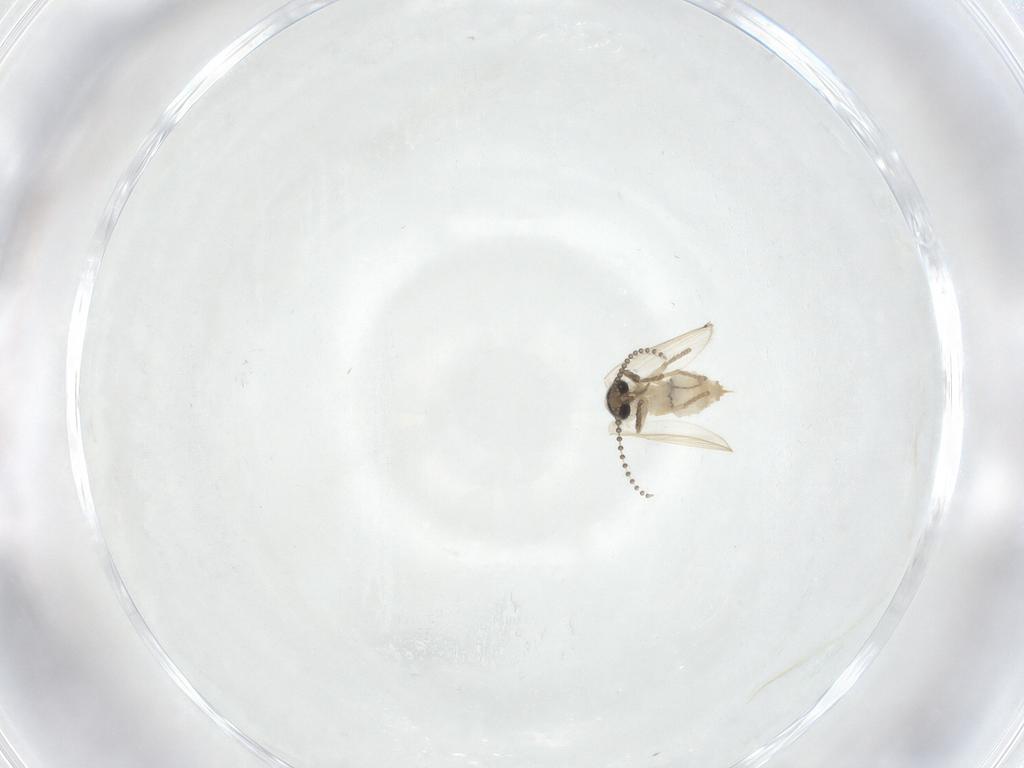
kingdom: Animalia
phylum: Arthropoda
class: Insecta
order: Diptera
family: Psychodidae
